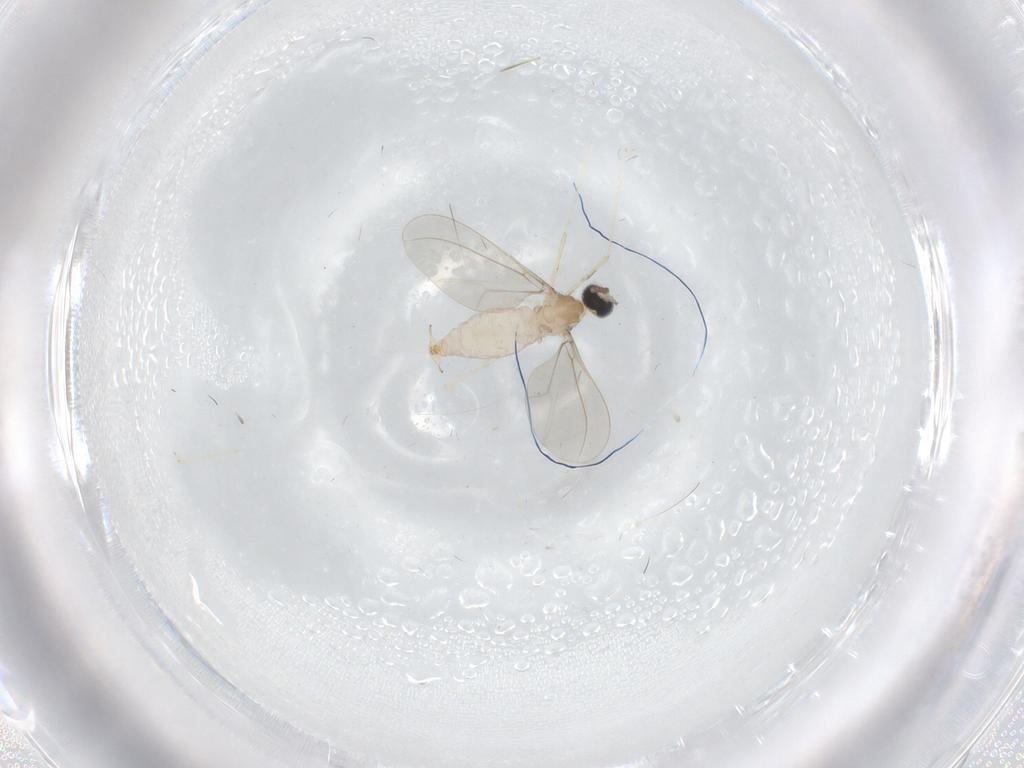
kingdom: Animalia
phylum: Arthropoda
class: Insecta
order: Diptera
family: Cecidomyiidae
